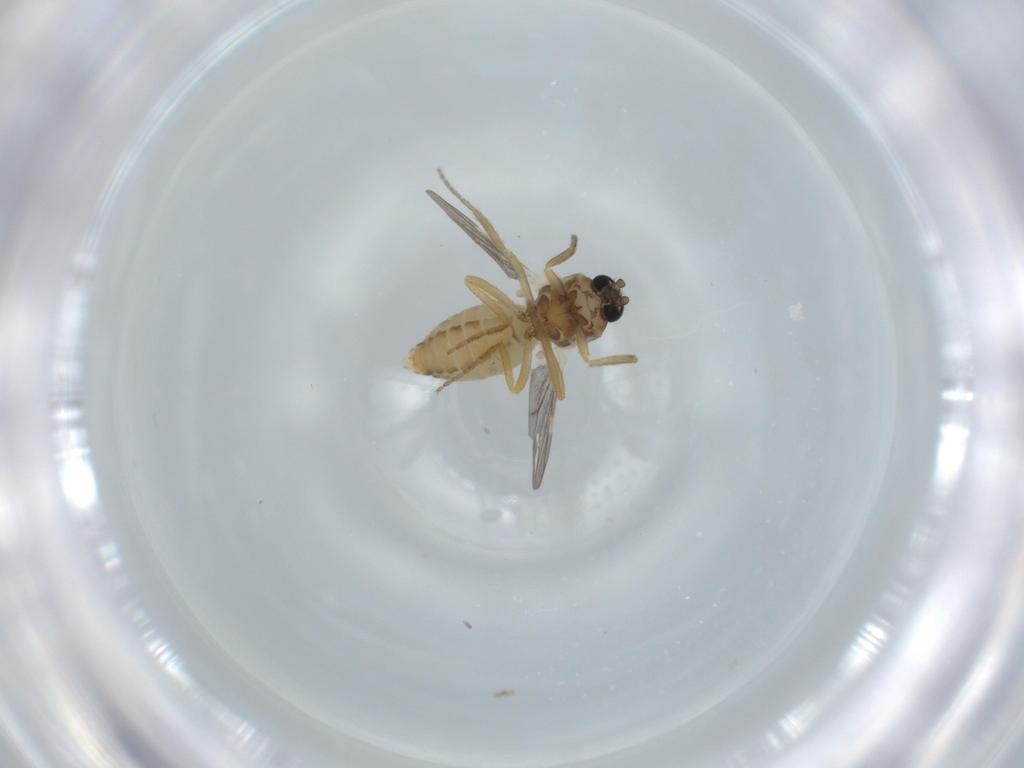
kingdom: Animalia
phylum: Arthropoda
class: Insecta
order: Diptera
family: Ceratopogonidae
